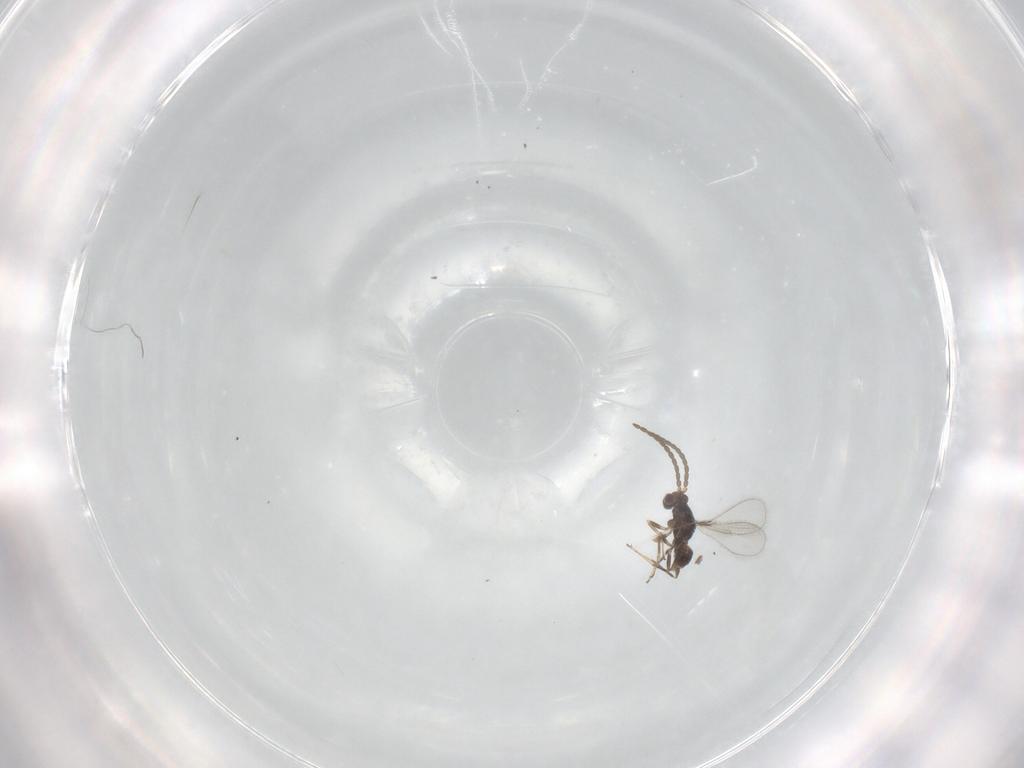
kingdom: Animalia
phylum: Arthropoda
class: Insecta
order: Hymenoptera
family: Mymaridae
